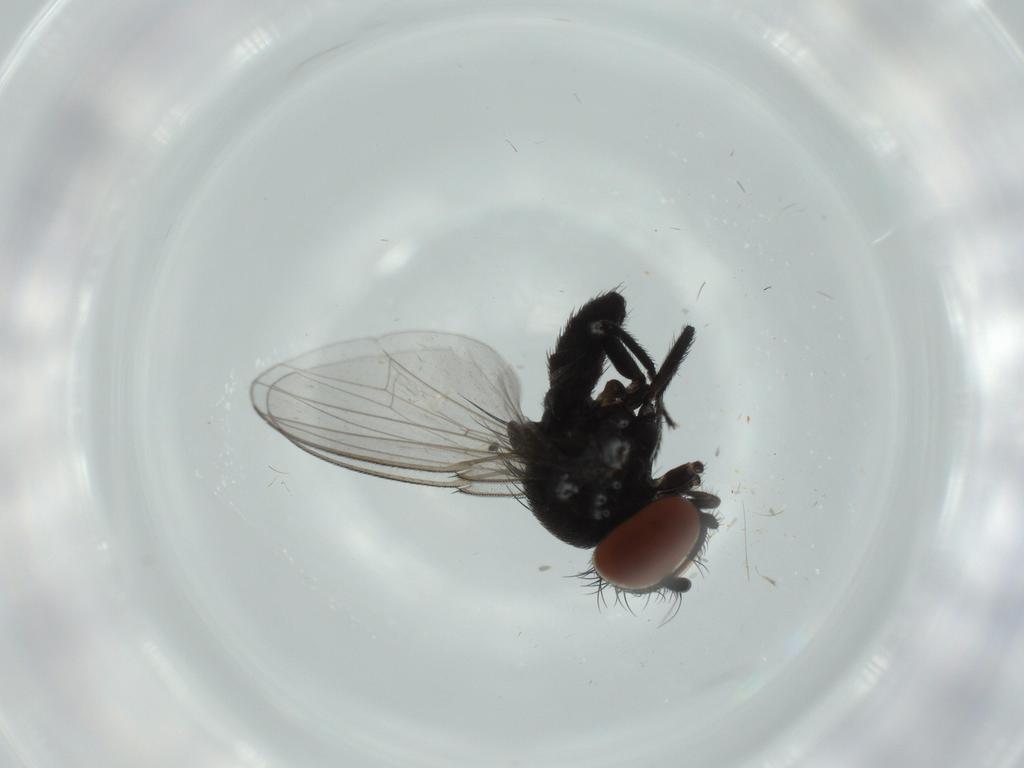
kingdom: Animalia
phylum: Arthropoda
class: Insecta
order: Diptera
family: Milichiidae
